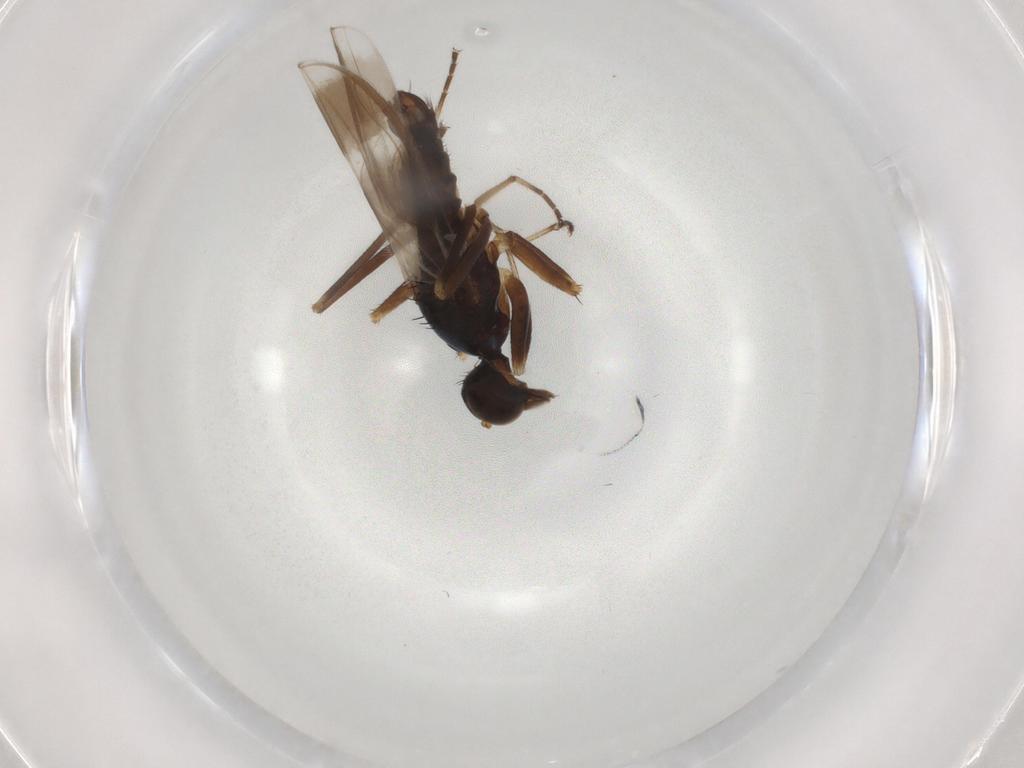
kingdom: Animalia
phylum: Arthropoda
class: Insecta
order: Diptera
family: Hybotidae
